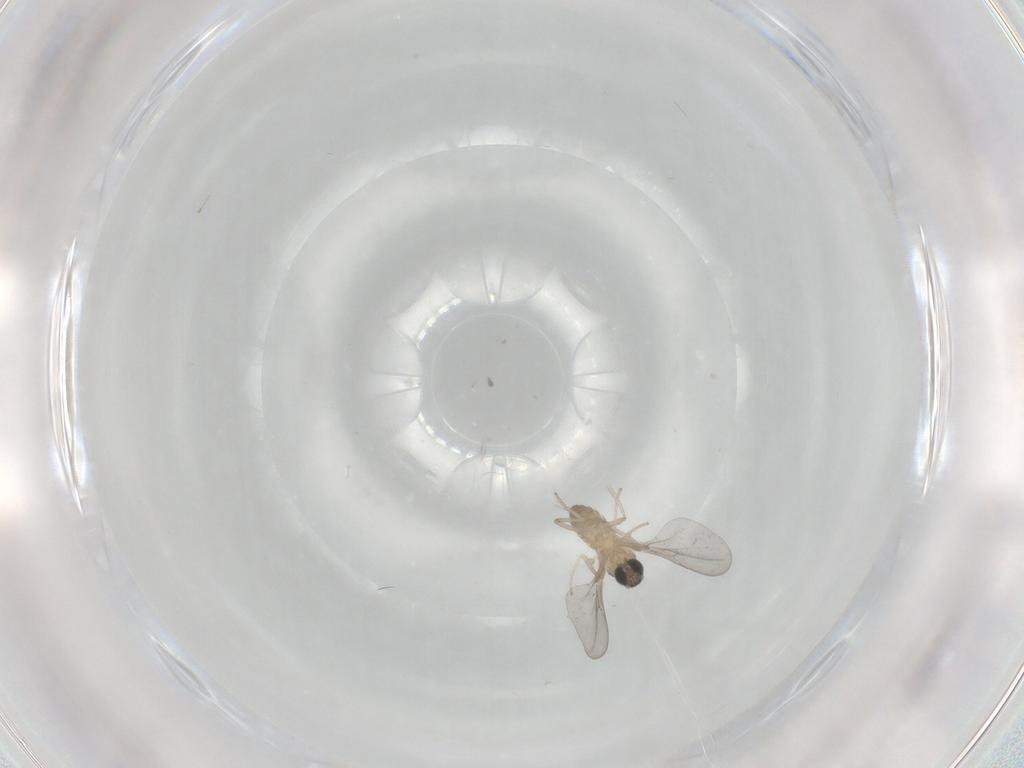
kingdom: Animalia
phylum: Arthropoda
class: Insecta
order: Diptera
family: Cecidomyiidae
